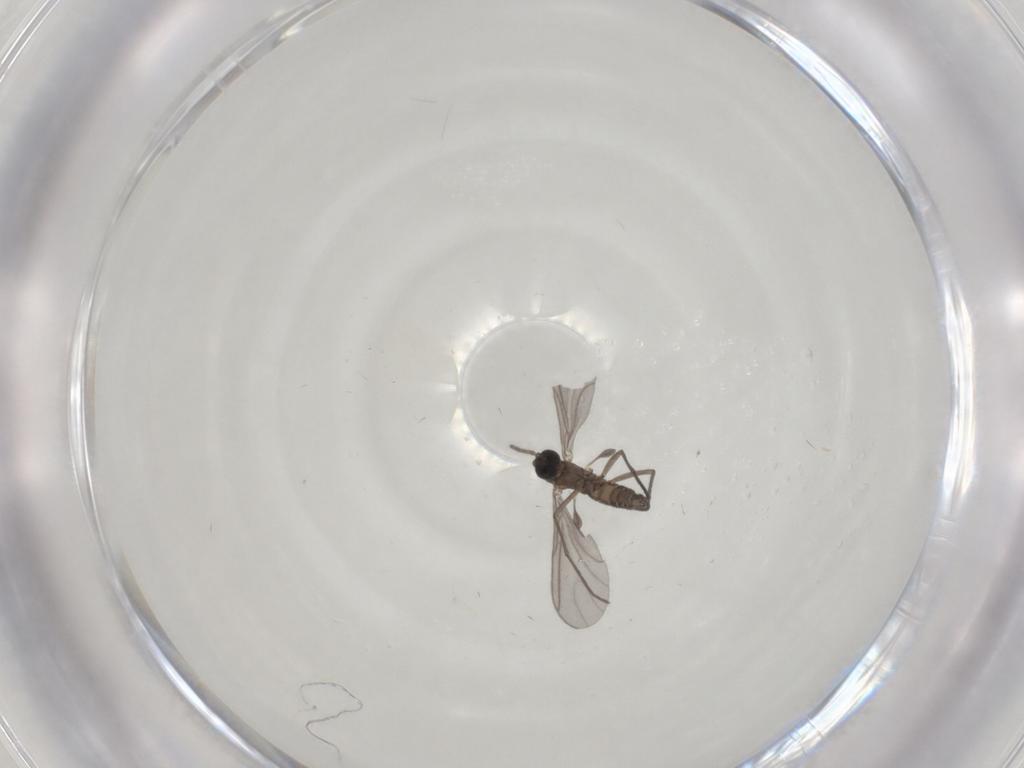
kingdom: Animalia
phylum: Arthropoda
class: Insecta
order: Diptera
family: Sciaridae
